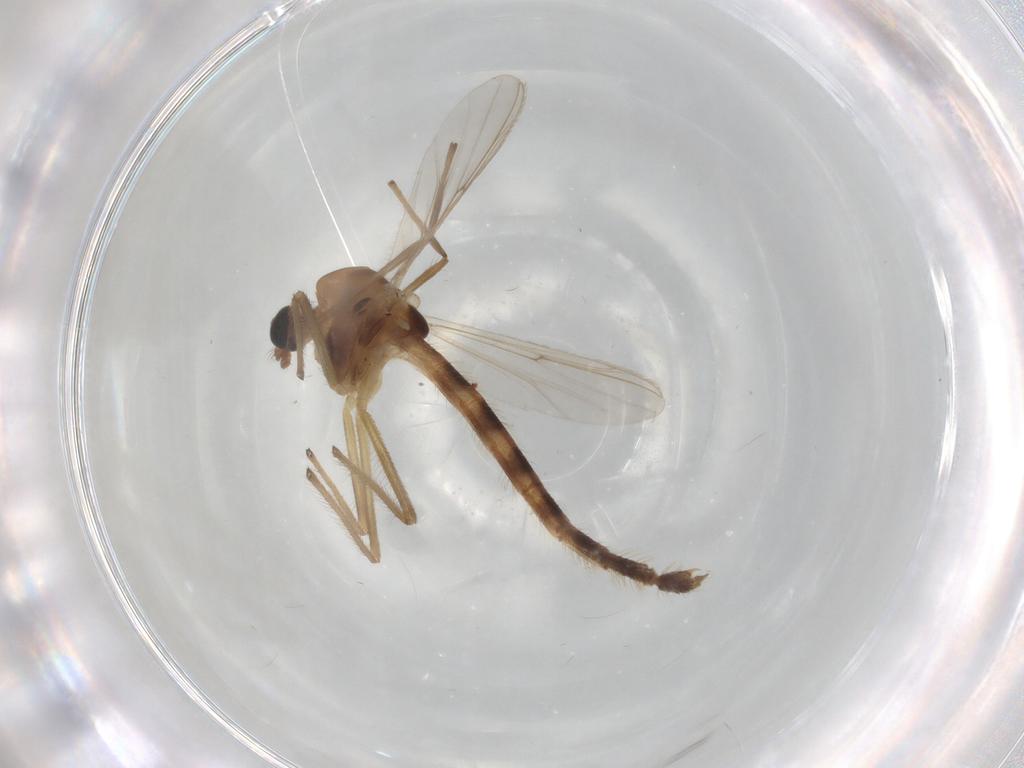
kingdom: Animalia
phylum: Arthropoda
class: Insecta
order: Diptera
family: Chironomidae
